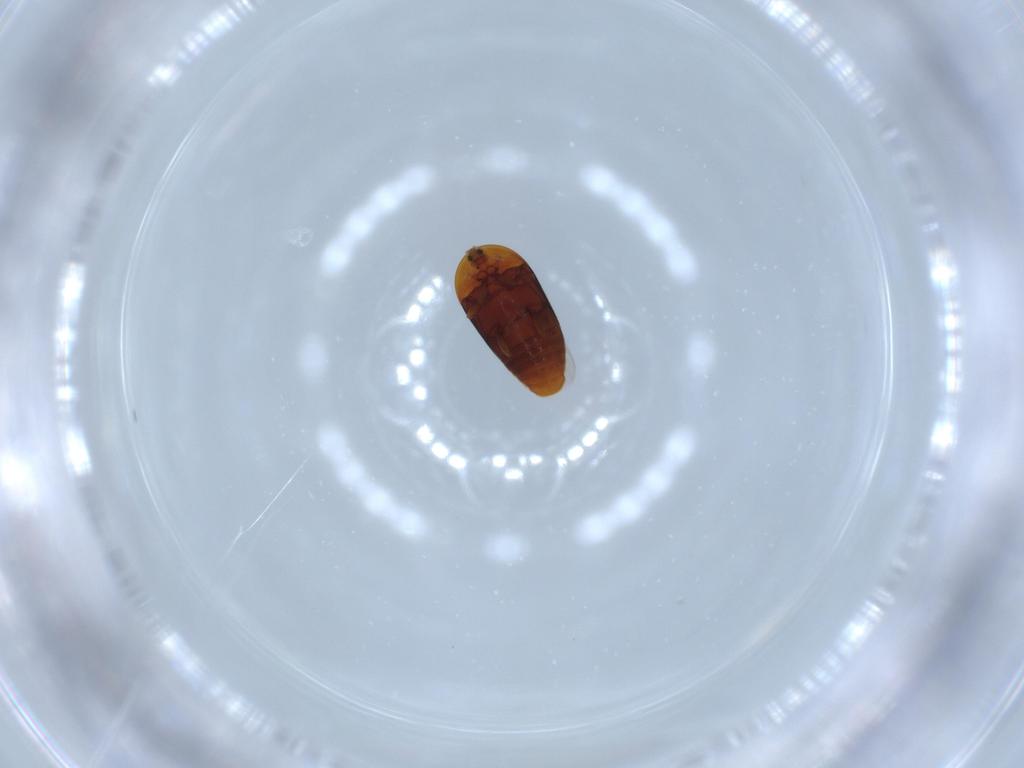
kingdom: Animalia
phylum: Arthropoda
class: Insecta
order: Coleoptera
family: Corylophidae
